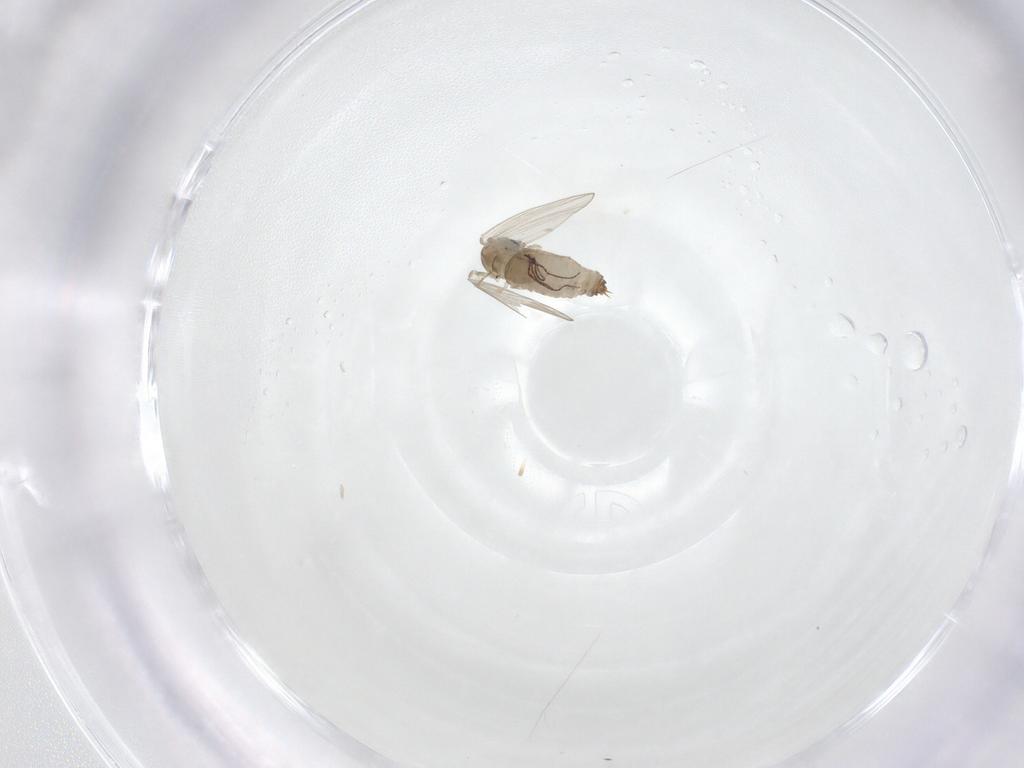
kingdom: Animalia
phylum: Arthropoda
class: Insecta
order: Diptera
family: Psychodidae
